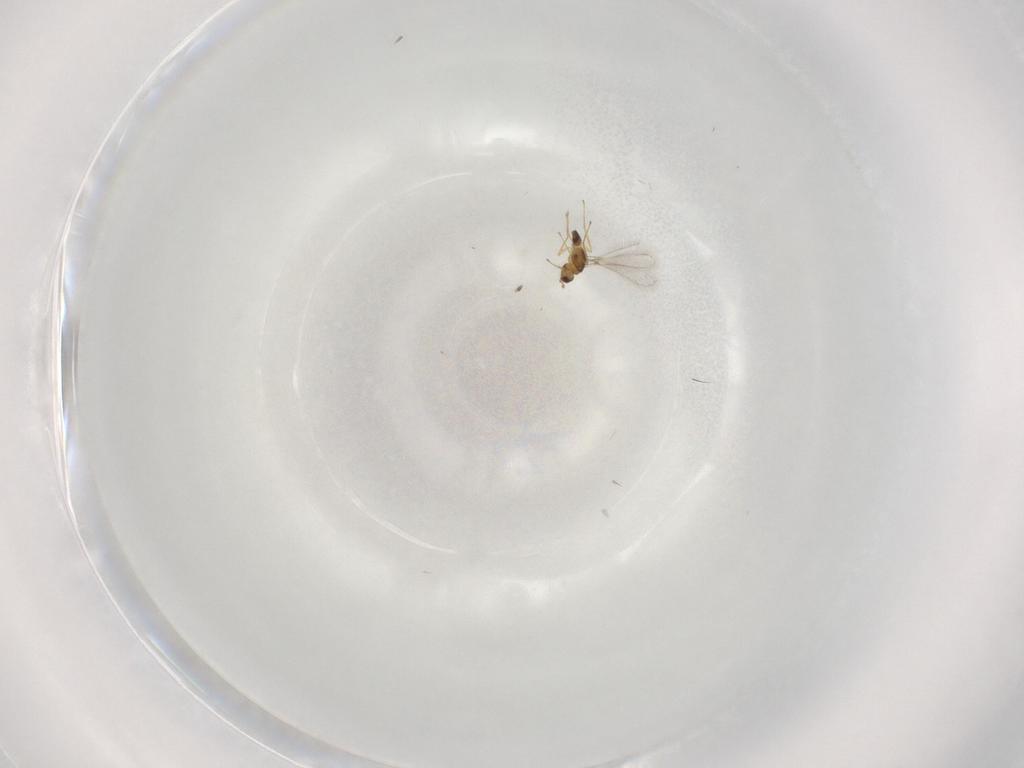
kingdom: Animalia
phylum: Arthropoda
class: Insecta
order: Hymenoptera
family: Mymaridae
